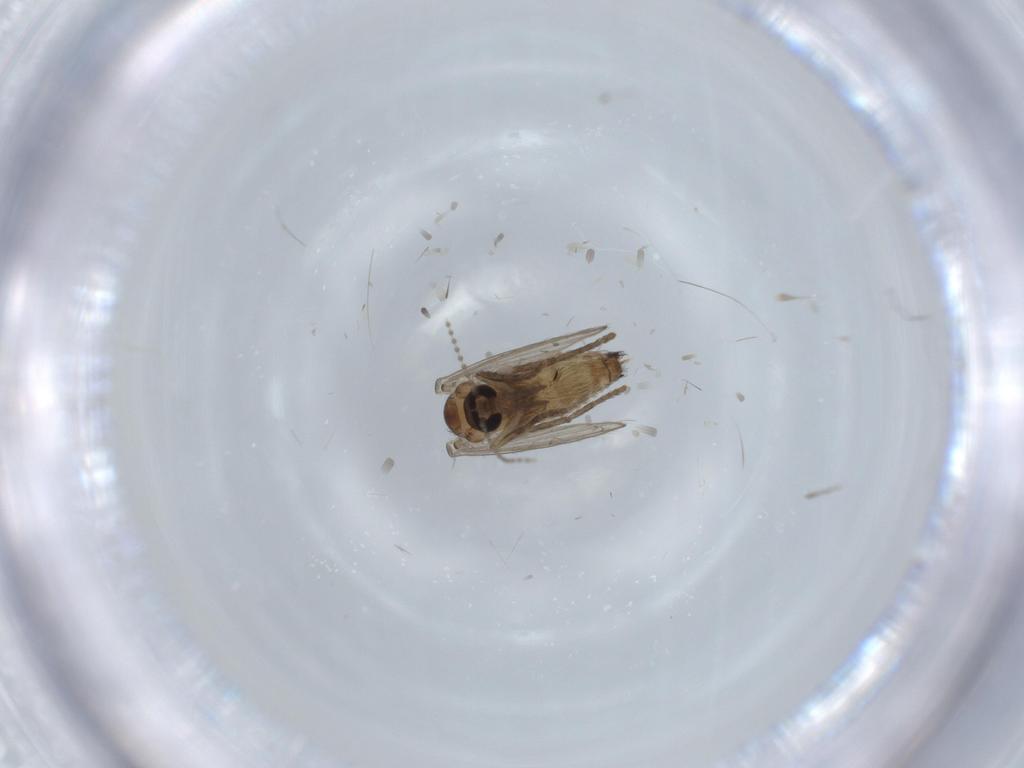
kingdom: Animalia
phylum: Arthropoda
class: Insecta
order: Diptera
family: Psychodidae
